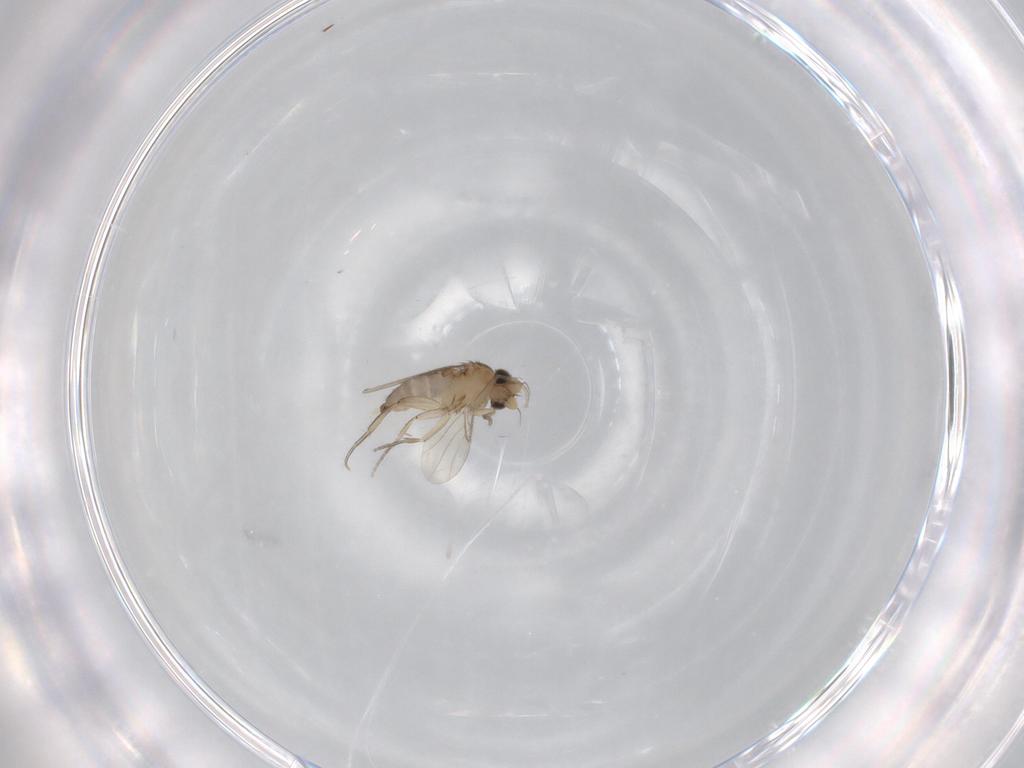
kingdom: Animalia
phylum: Arthropoda
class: Insecta
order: Diptera
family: Phoridae
